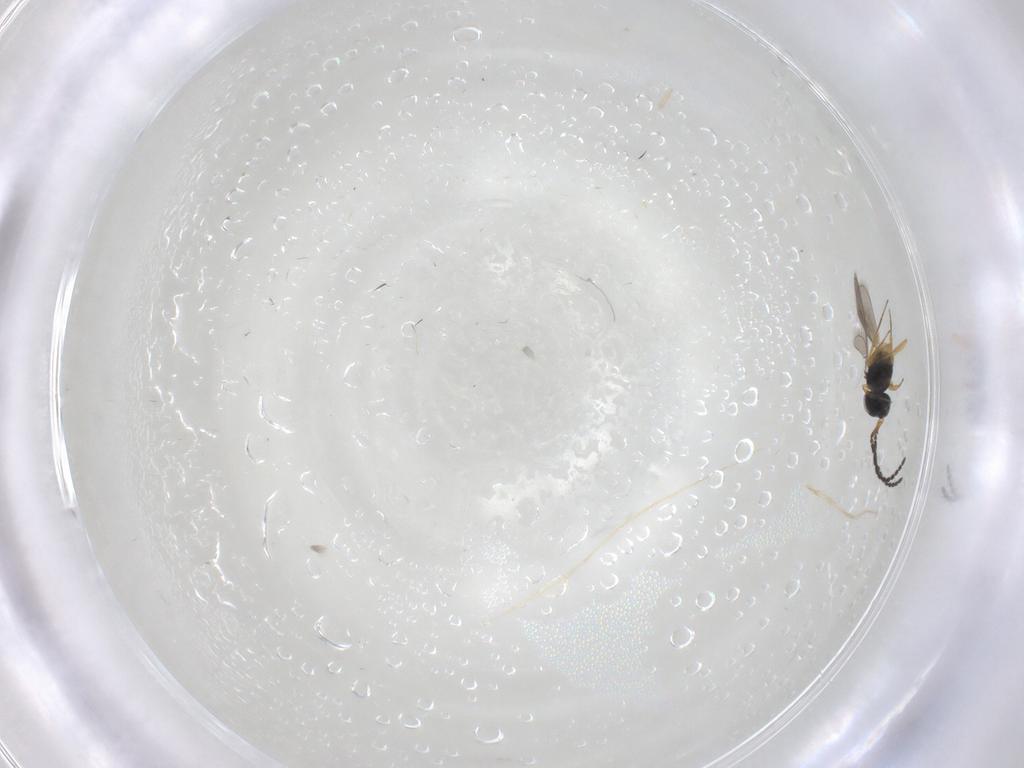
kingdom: Animalia
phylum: Arthropoda
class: Insecta
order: Hymenoptera
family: Scelionidae
